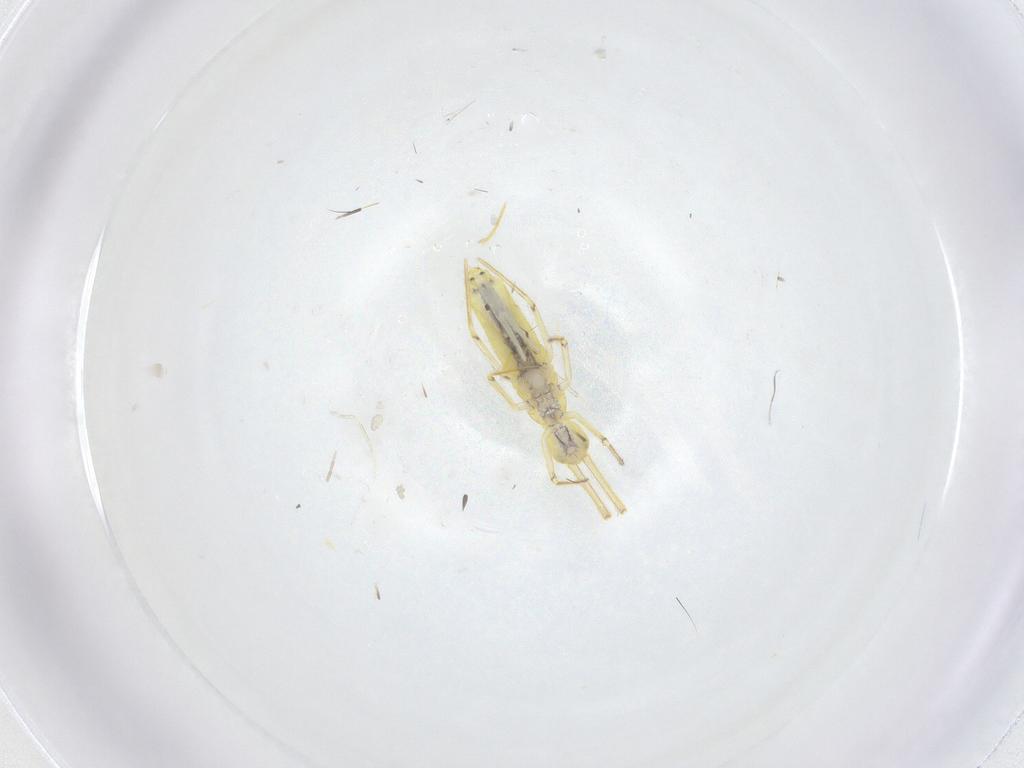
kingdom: Animalia
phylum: Arthropoda
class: Collembola
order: Entomobryomorpha
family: Entomobryidae
